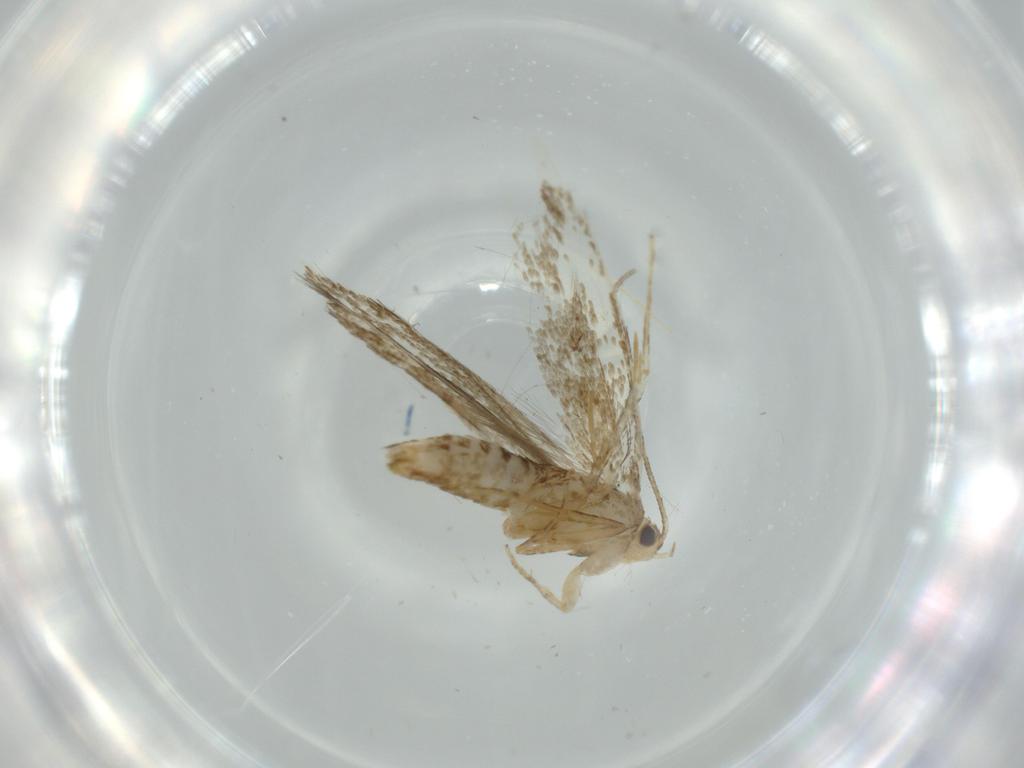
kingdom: Animalia
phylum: Arthropoda
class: Insecta
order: Lepidoptera
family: Tineidae
